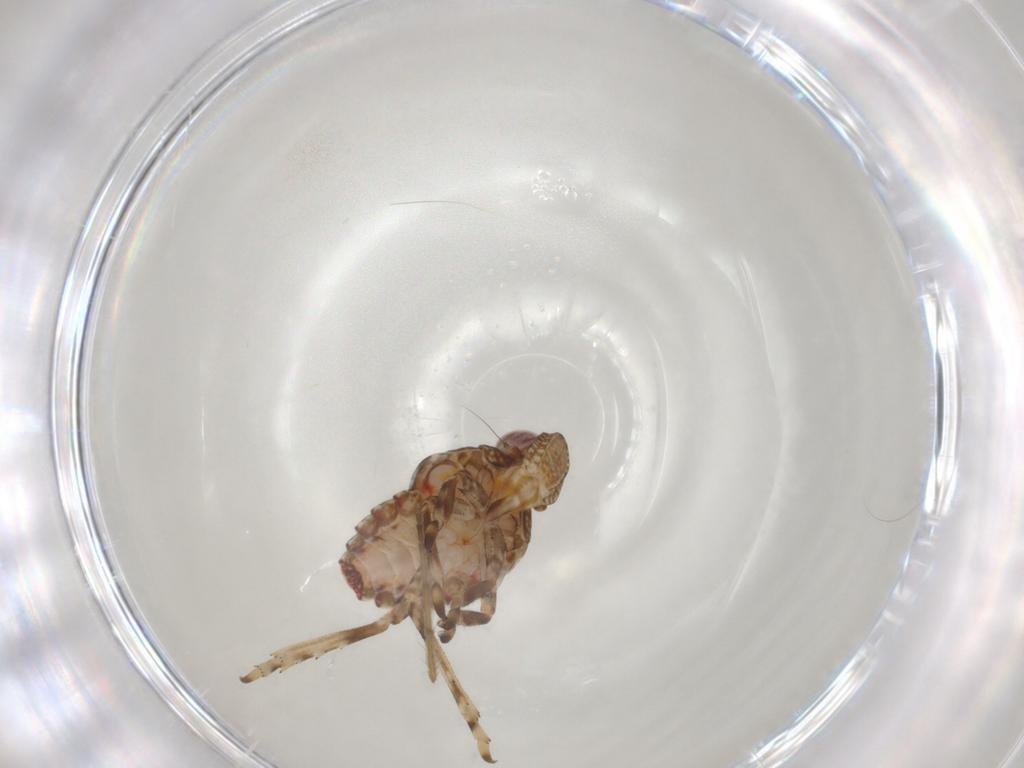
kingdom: Animalia
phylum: Arthropoda
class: Insecta
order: Hemiptera
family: Tropiduchidae
